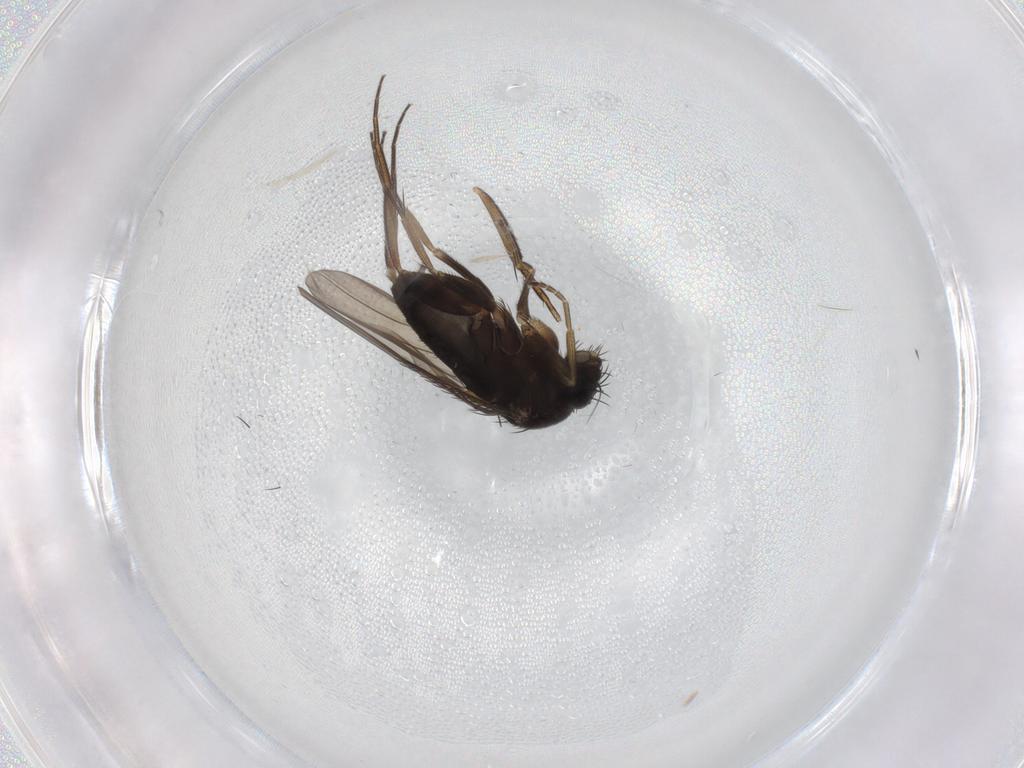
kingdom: Animalia
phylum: Arthropoda
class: Insecta
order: Diptera
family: Phoridae
